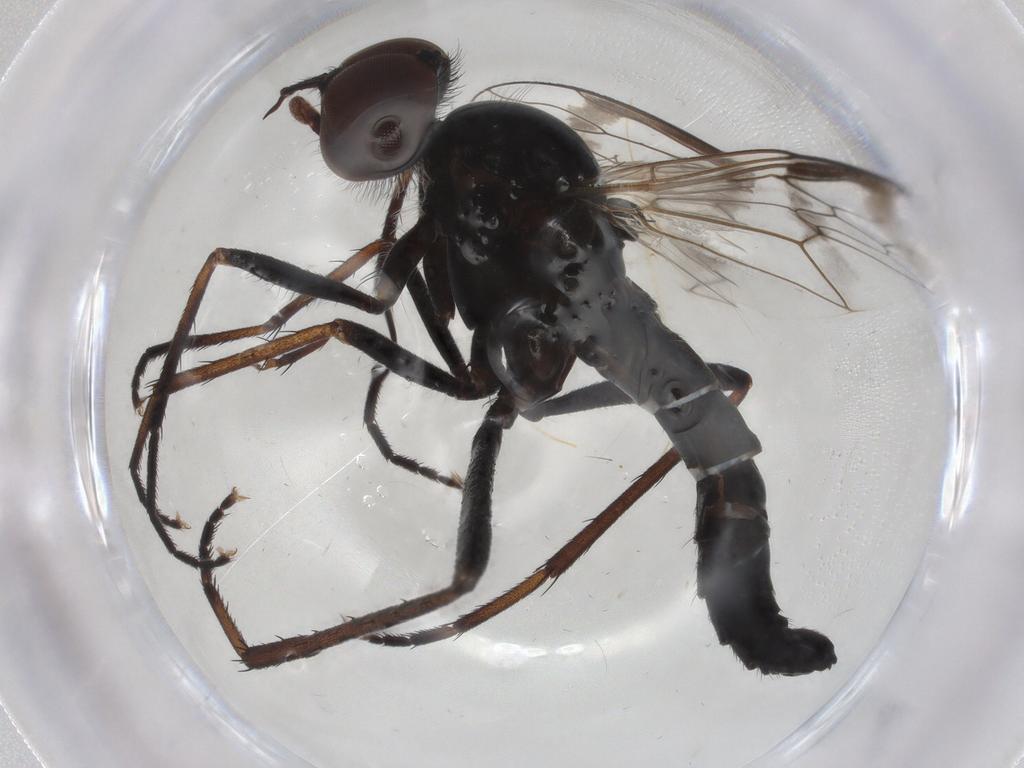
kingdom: Animalia
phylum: Arthropoda
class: Insecta
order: Diptera
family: Therevidae
